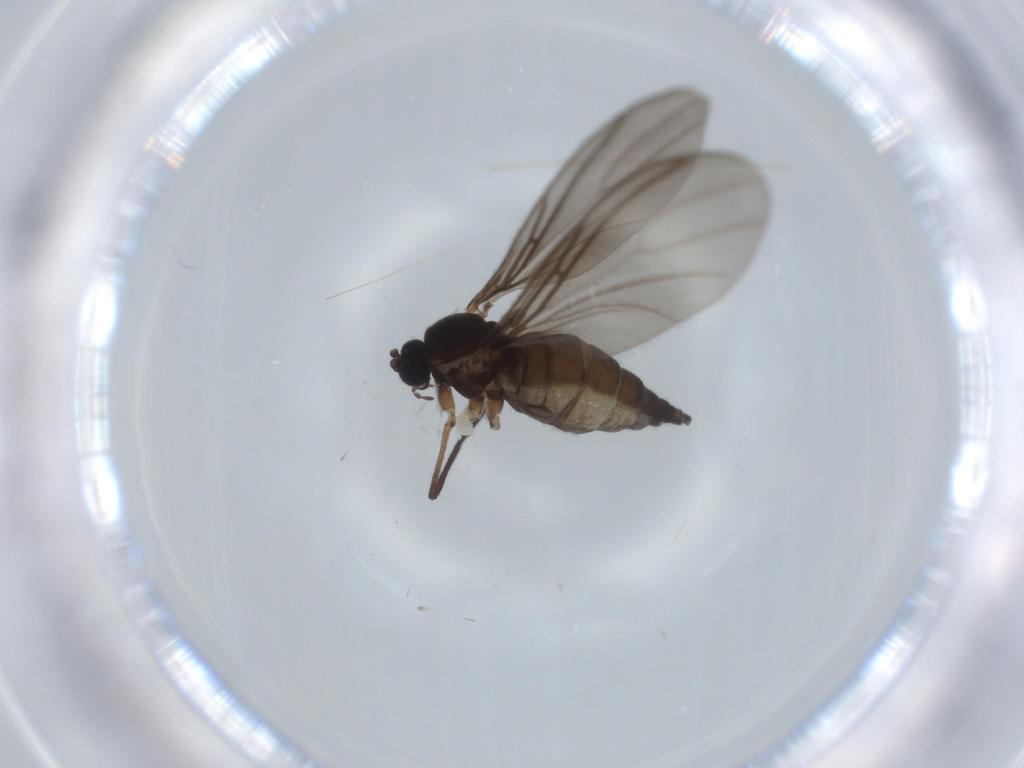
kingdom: Animalia
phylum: Arthropoda
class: Insecta
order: Diptera
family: Sciaridae
